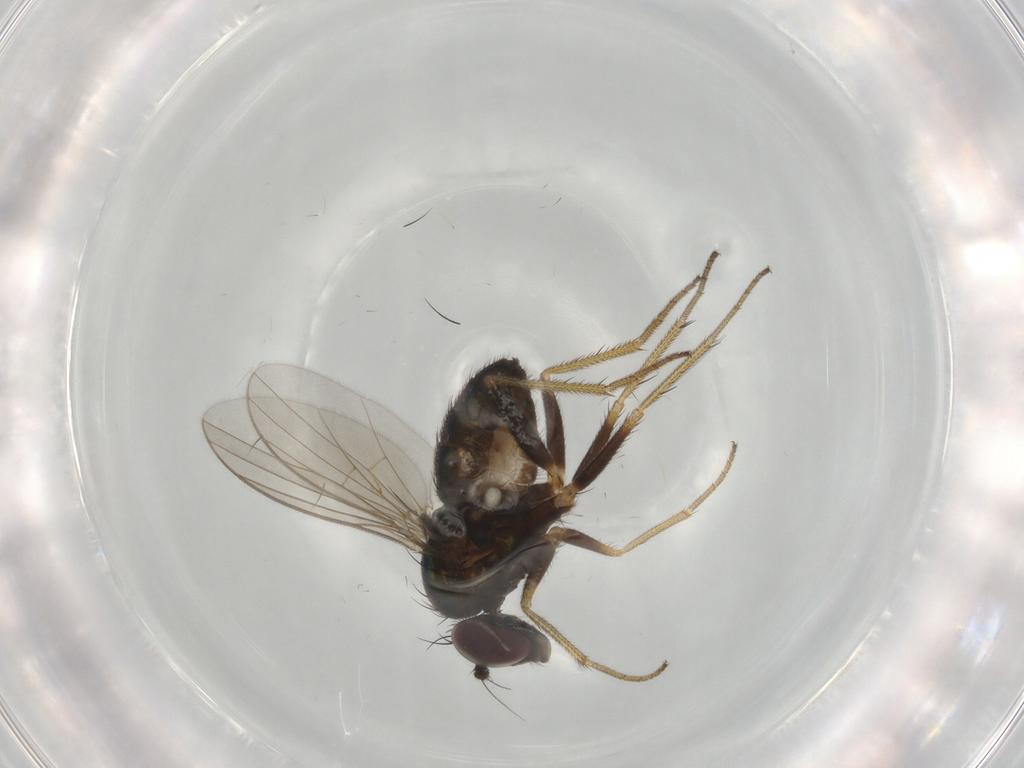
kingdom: Animalia
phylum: Arthropoda
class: Insecta
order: Diptera
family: Dolichopodidae
